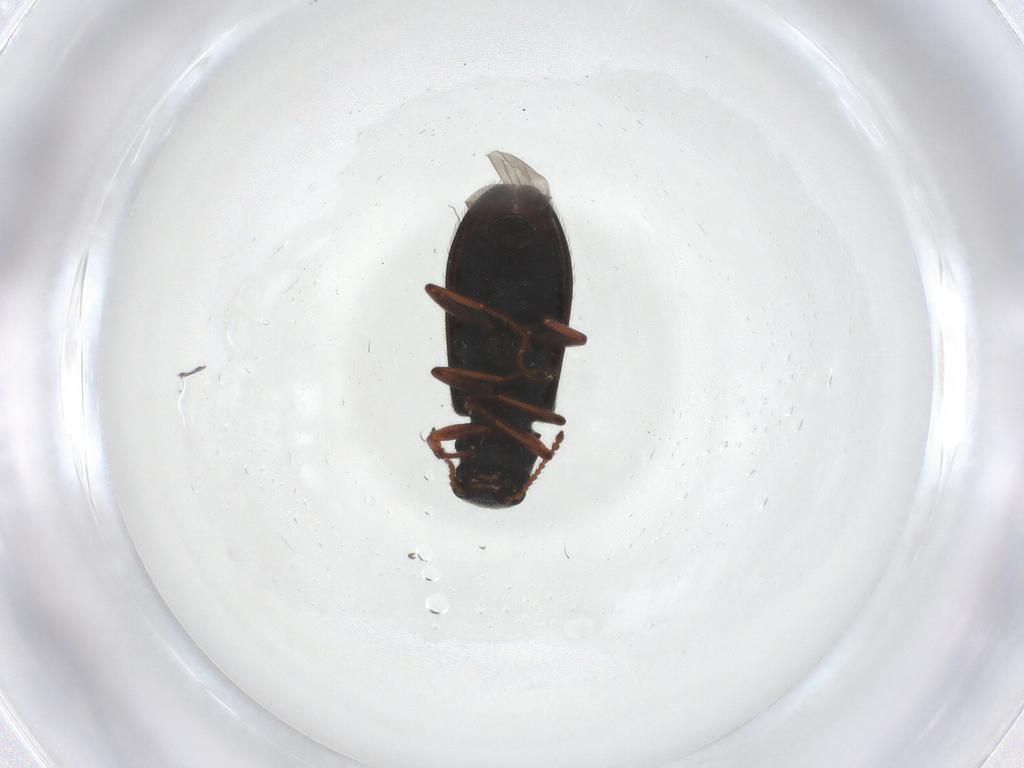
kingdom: Animalia
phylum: Arthropoda
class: Insecta
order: Coleoptera
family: Melyridae
